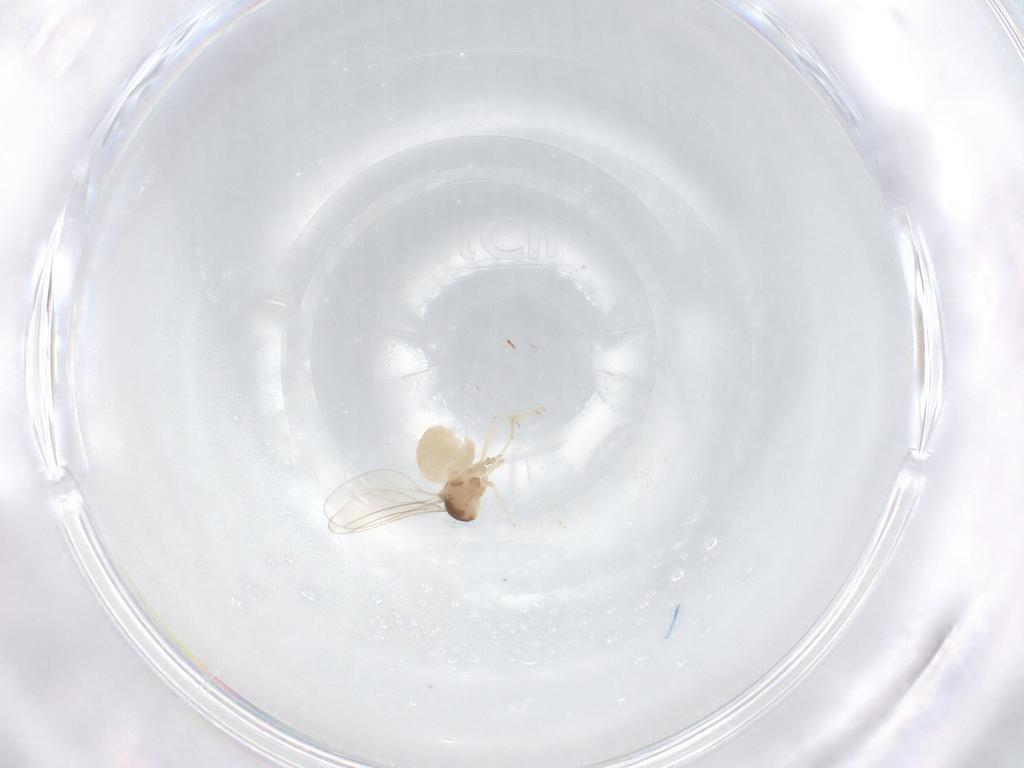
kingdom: Animalia
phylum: Arthropoda
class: Insecta
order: Diptera
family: Cecidomyiidae
